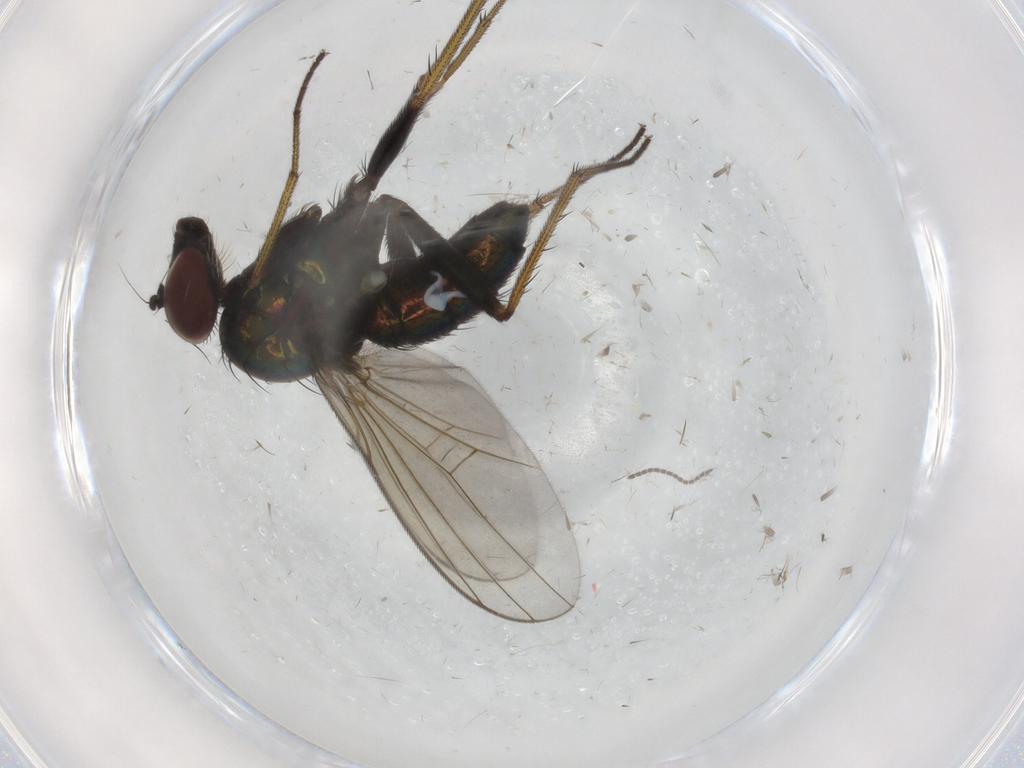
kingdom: Animalia
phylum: Arthropoda
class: Insecta
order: Diptera
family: Dolichopodidae
